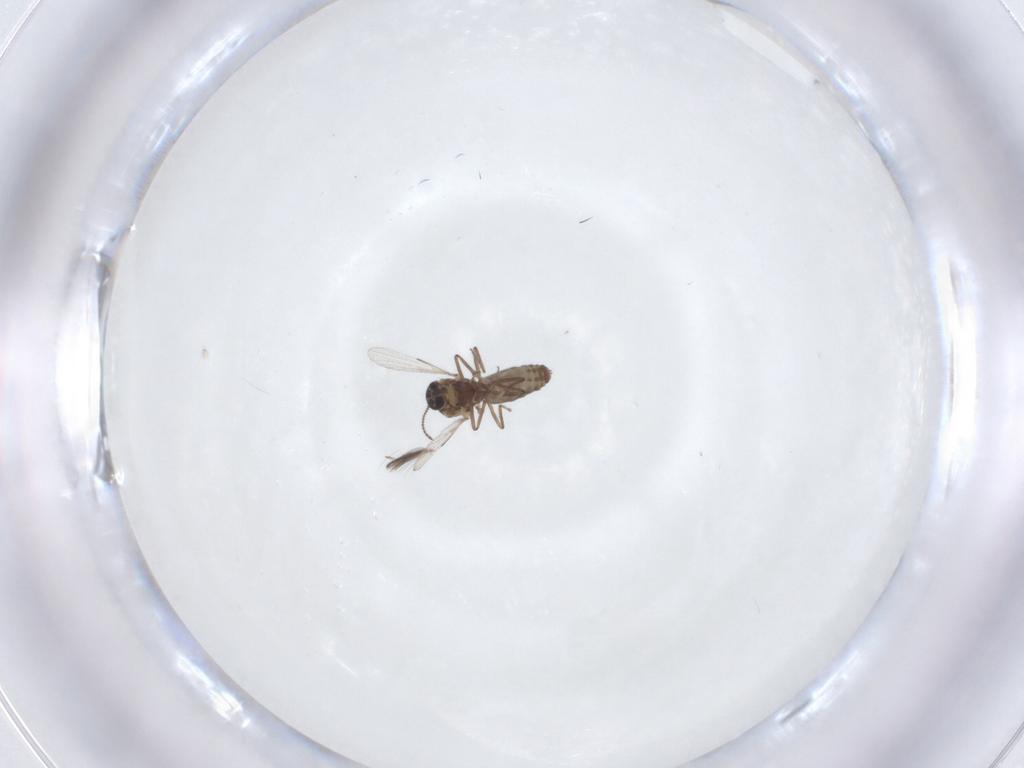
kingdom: Animalia
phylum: Arthropoda
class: Insecta
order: Diptera
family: Ceratopogonidae
